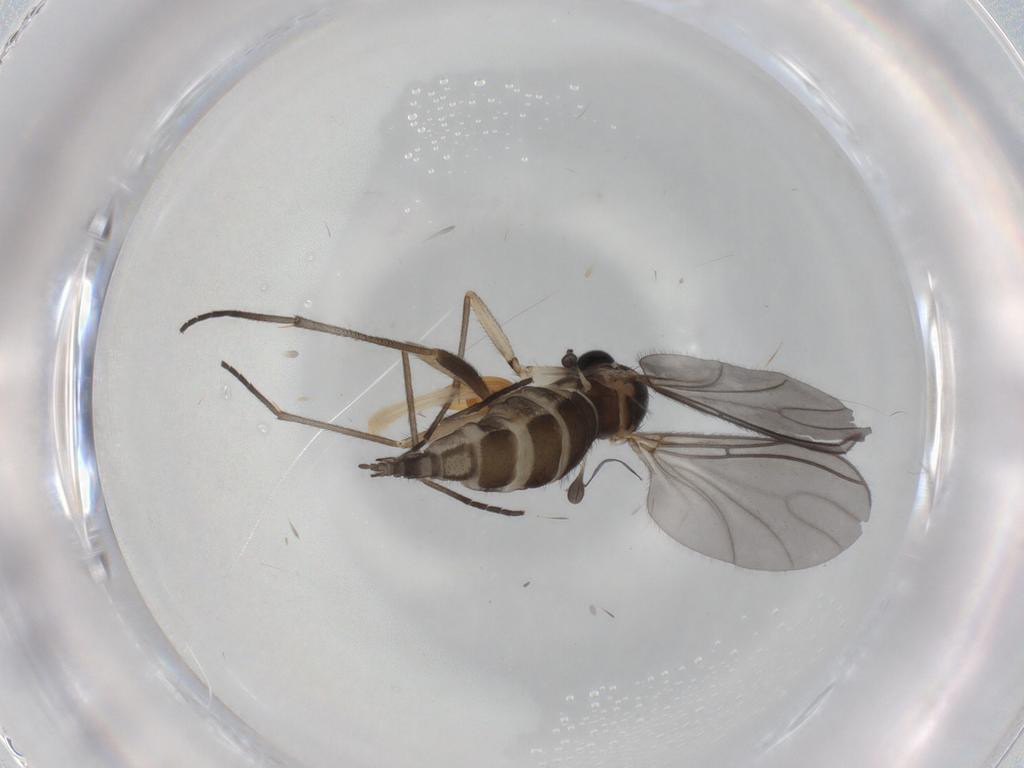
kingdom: Animalia
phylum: Arthropoda
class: Insecta
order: Diptera
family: Sciaridae
